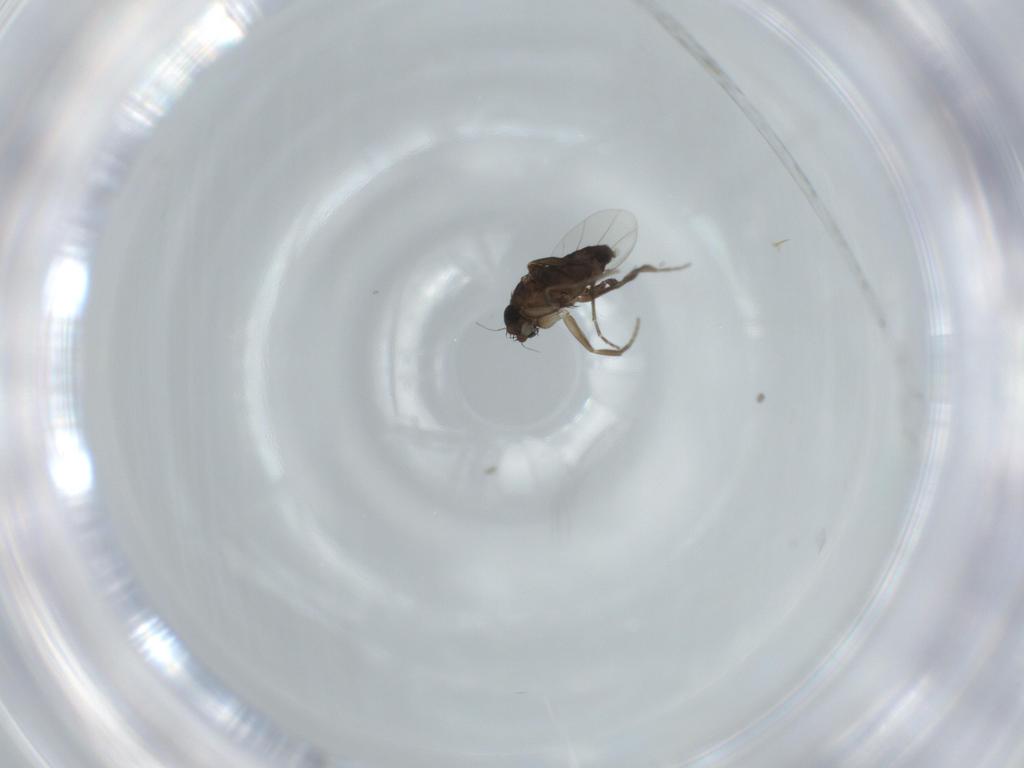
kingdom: Animalia
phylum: Arthropoda
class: Insecta
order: Diptera
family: Phoridae
